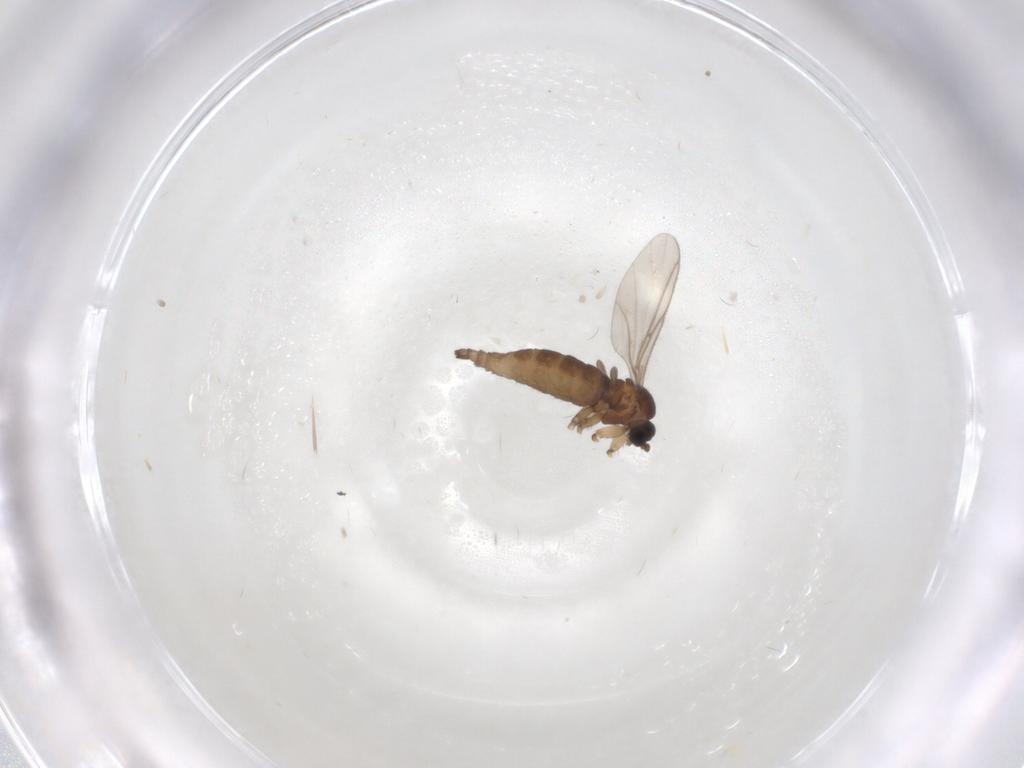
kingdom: Animalia
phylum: Arthropoda
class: Insecta
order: Diptera
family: Sciaridae
